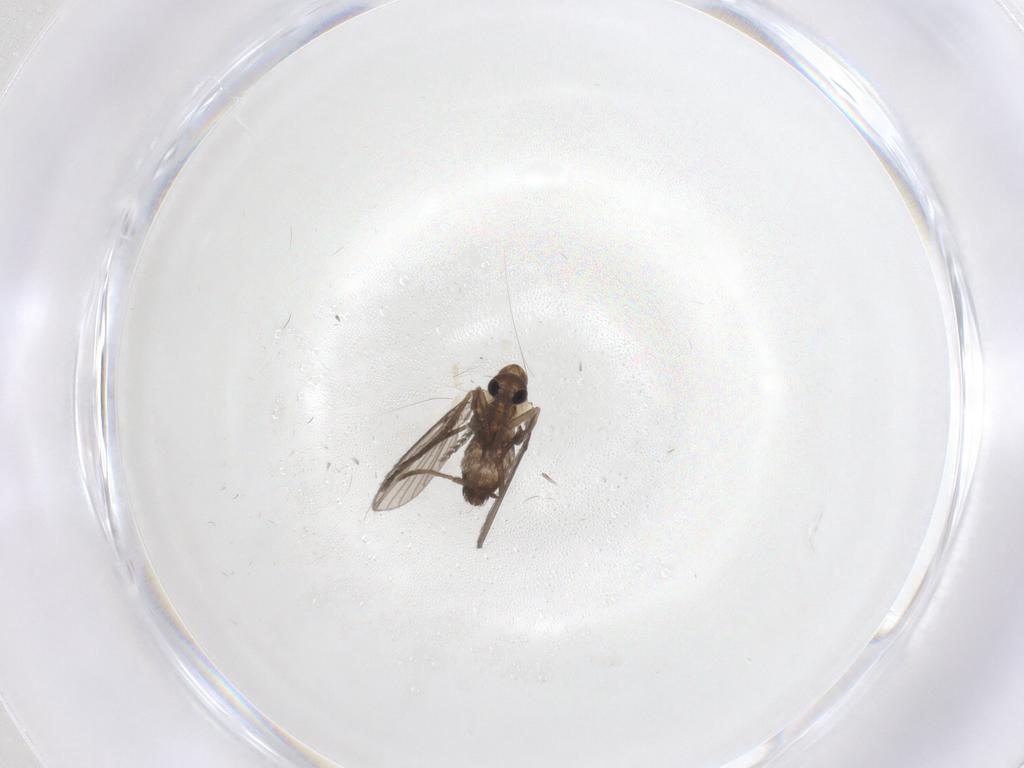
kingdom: Animalia
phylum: Arthropoda
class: Insecta
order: Diptera
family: Psychodidae
